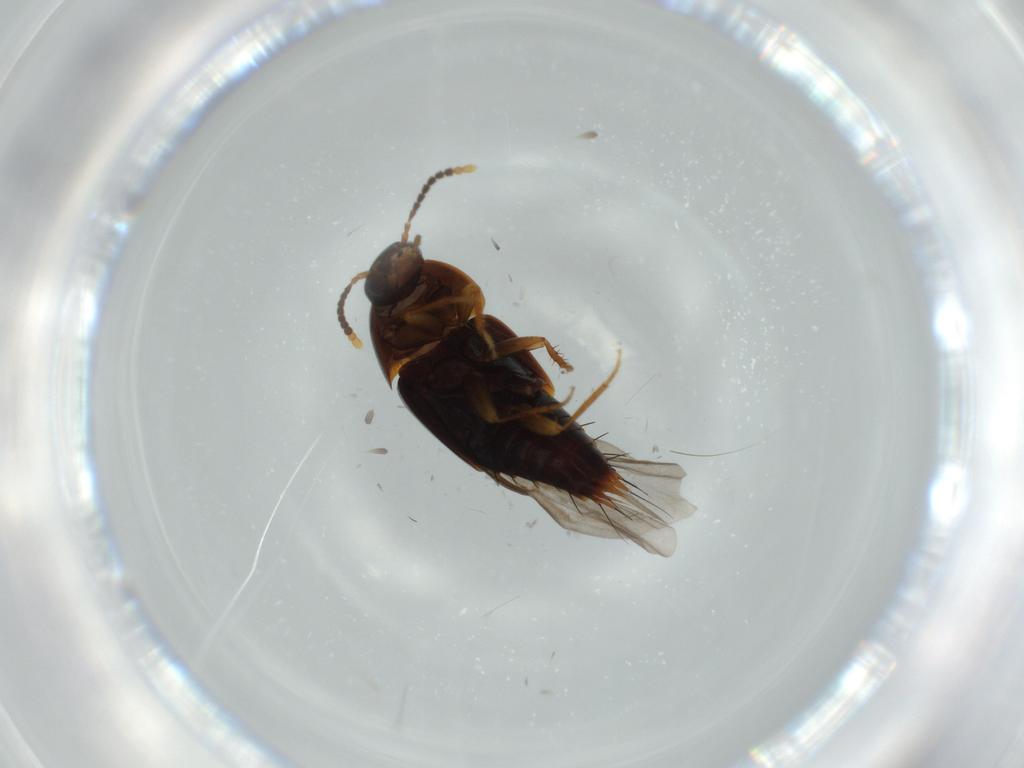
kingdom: Animalia
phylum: Arthropoda
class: Insecta
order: Coleoptera
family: Staphylinidae
